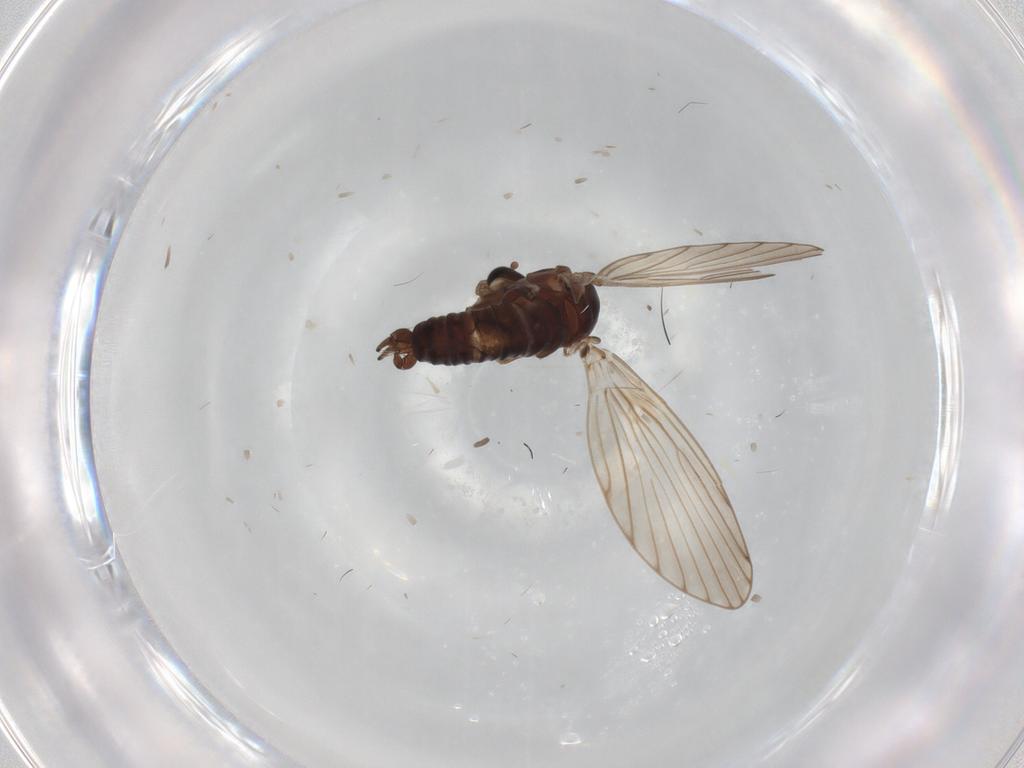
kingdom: Animalia
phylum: Arthropoda
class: Insecta
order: Diptera
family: Psychodidae
